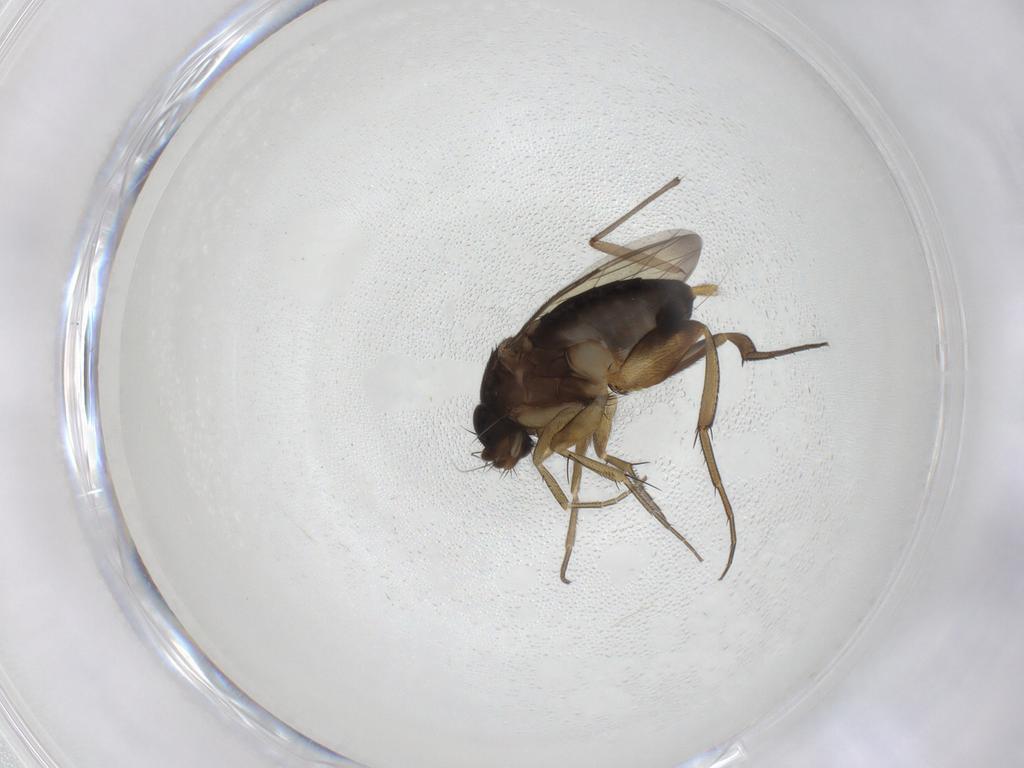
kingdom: Animalia
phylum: Arthropoda
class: Insecta
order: Diptera
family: Phoridae
